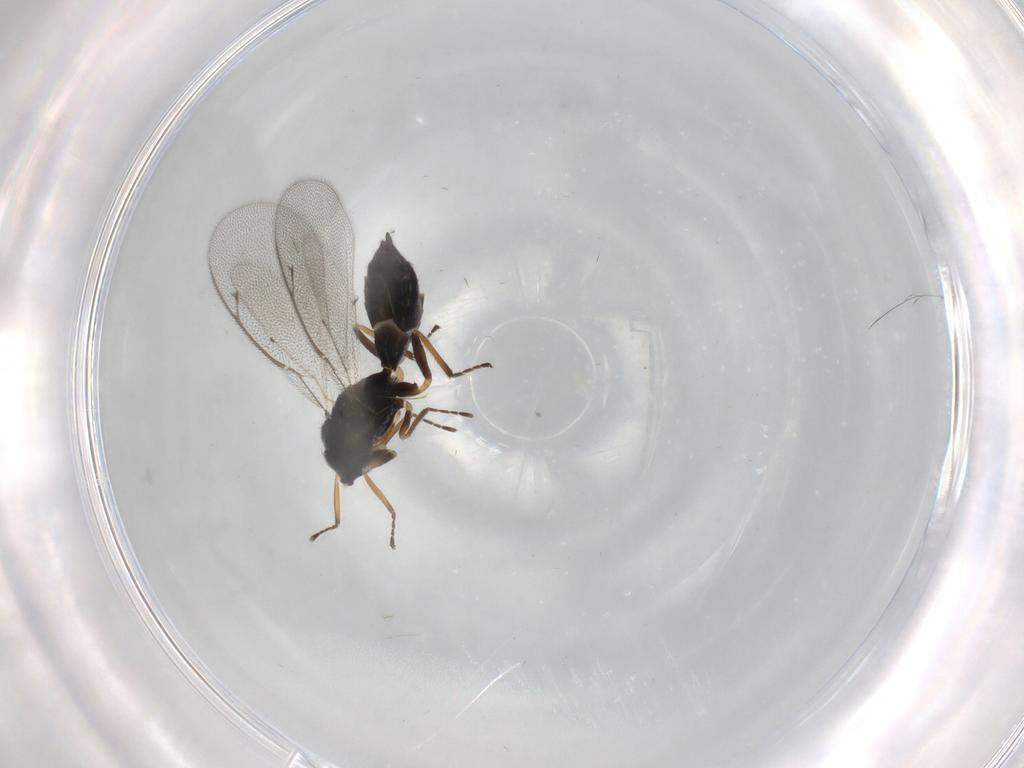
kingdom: Animalia
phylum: Arthropoda
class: Insecta
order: Hymenoptera
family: Eulophidae
